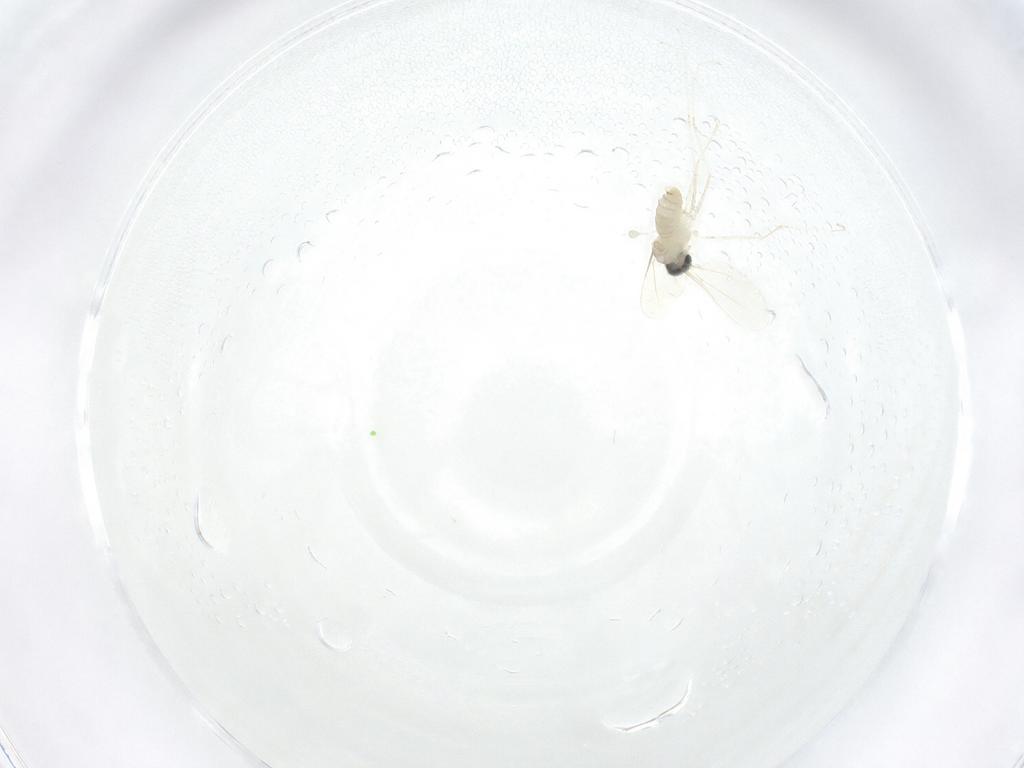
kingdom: Animalia
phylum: Arthropoda
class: Insecta
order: Diptera
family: Cecidomyiidae
